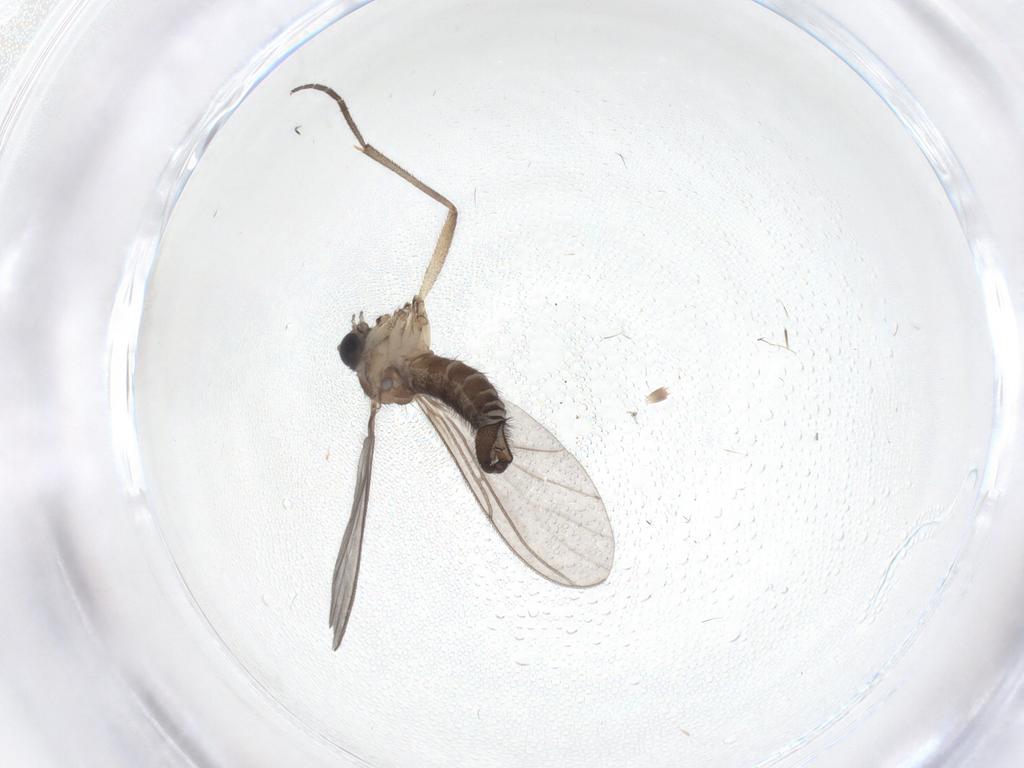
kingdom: Animalia
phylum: Arthropoda
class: Insecta
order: Diptera
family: Sciaridae
